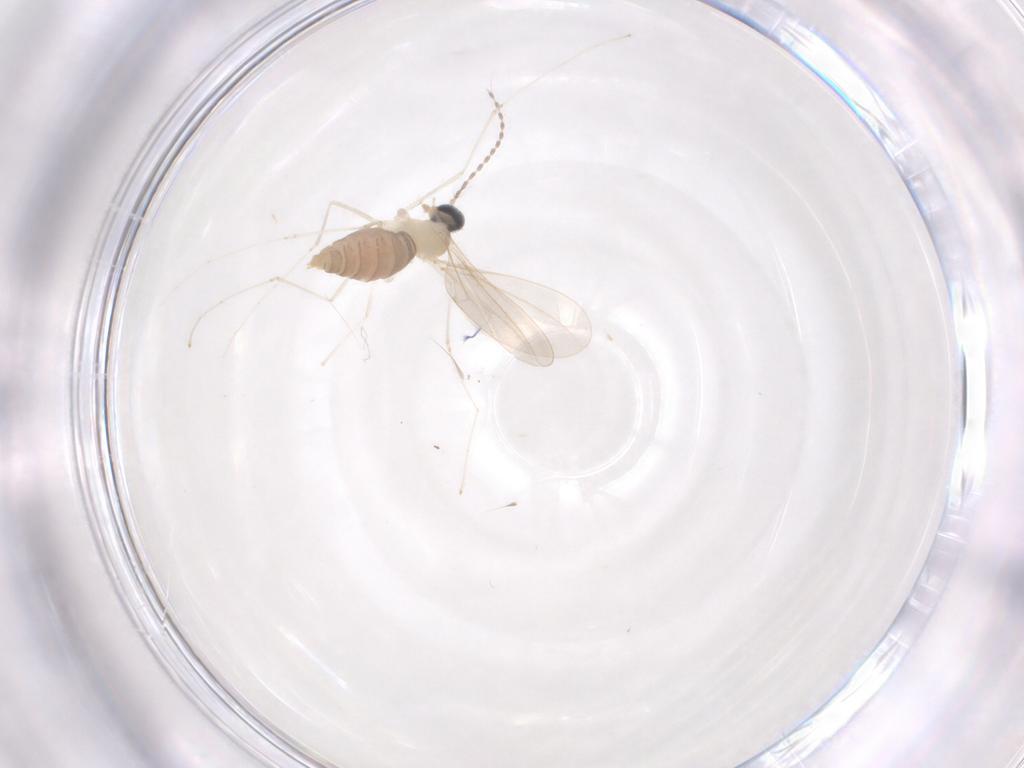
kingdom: Animalia
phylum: Arthropoda
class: Insecta
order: Diptera
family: Cecidomyiidae
